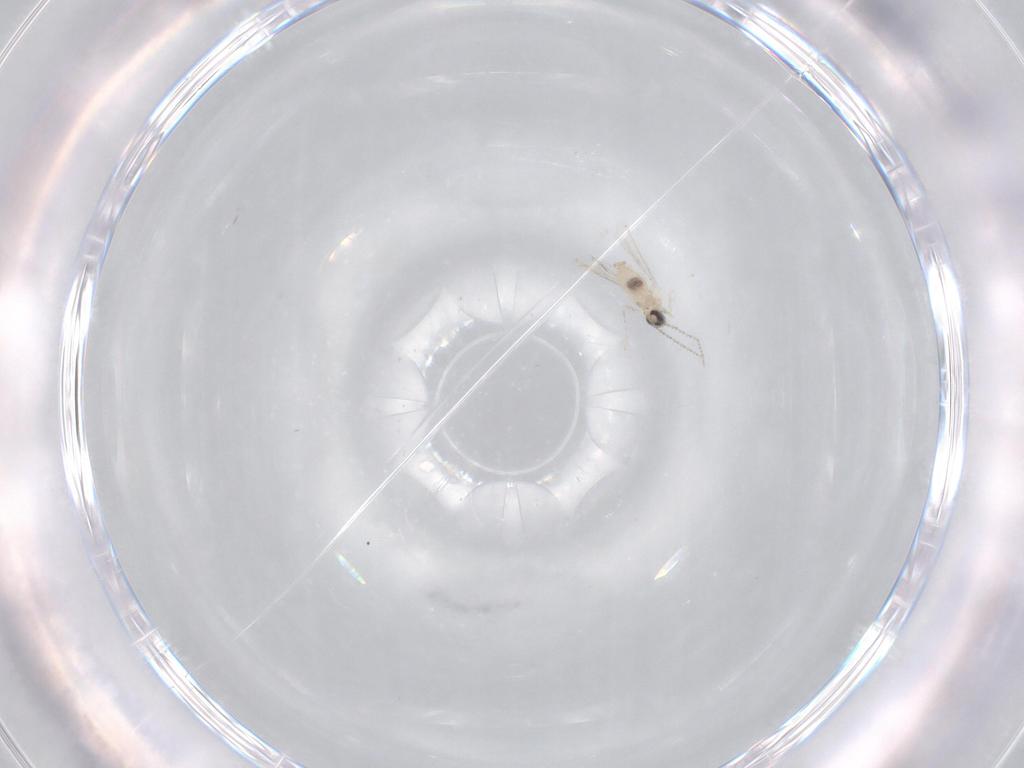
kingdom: Animalia
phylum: Arthropoda
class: Insecta
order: Diptera
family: Cecidomyiidae
